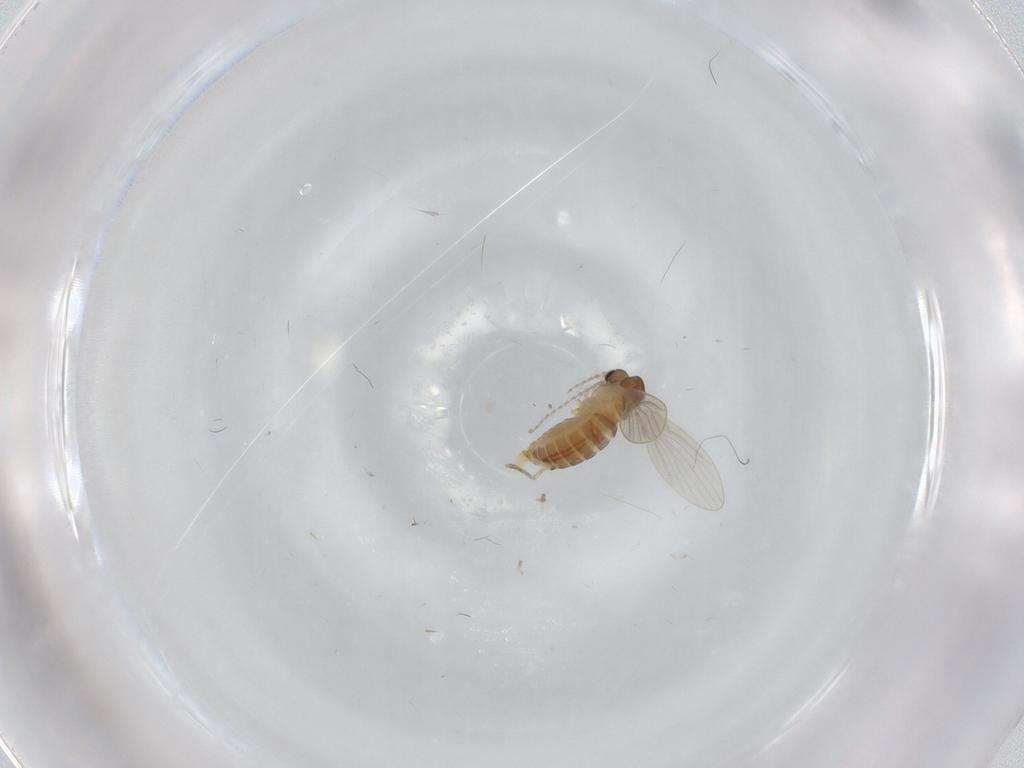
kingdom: Animalia
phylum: Arthropoda
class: Insecta
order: Diptera
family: Psychodidae
